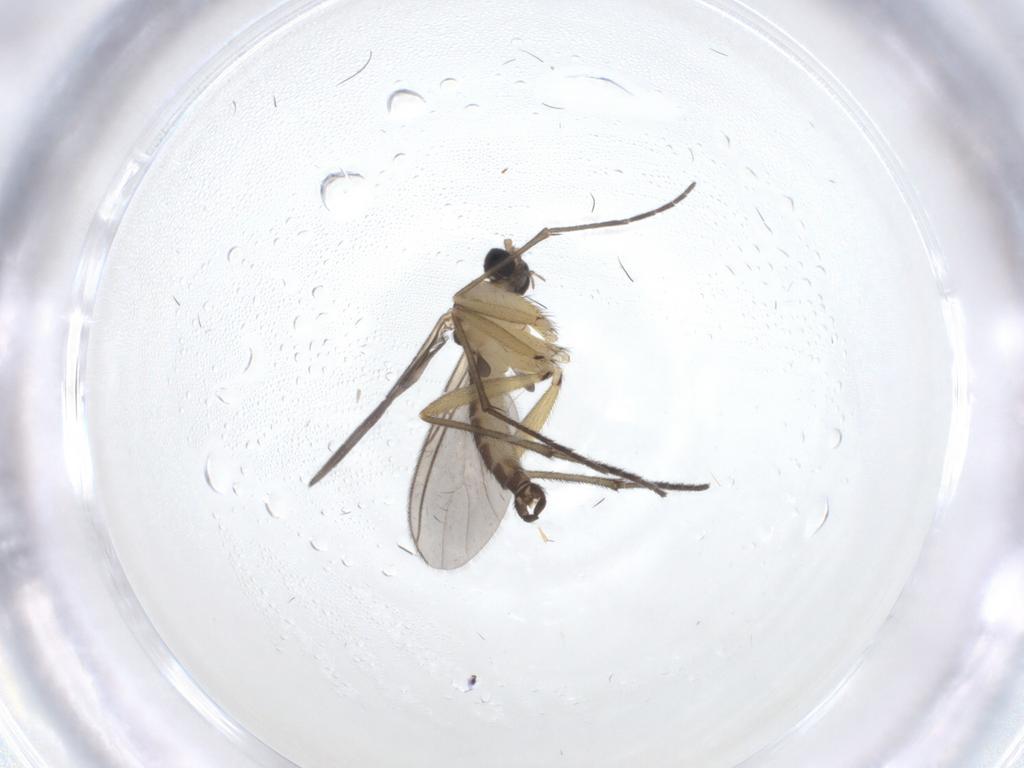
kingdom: Animalia
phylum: Arthropoda
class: Insecta
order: Diptera
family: Sciaridae
